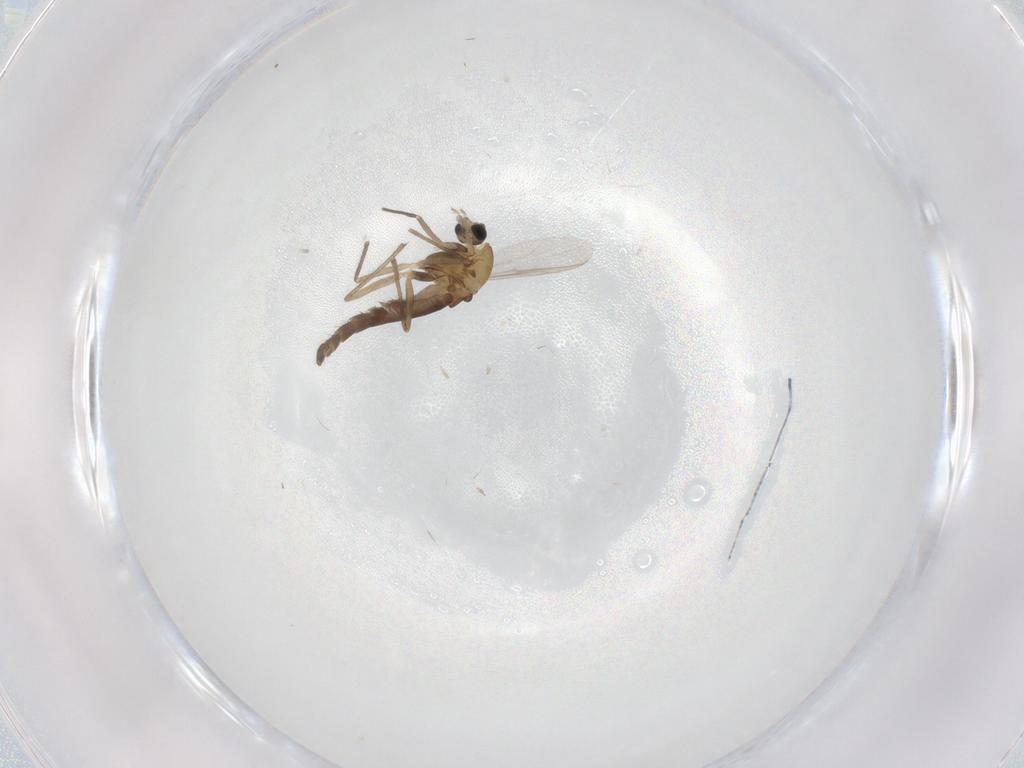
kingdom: Animalia
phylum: Arthropoda
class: Insecta
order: Diptera
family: Chironomidae
